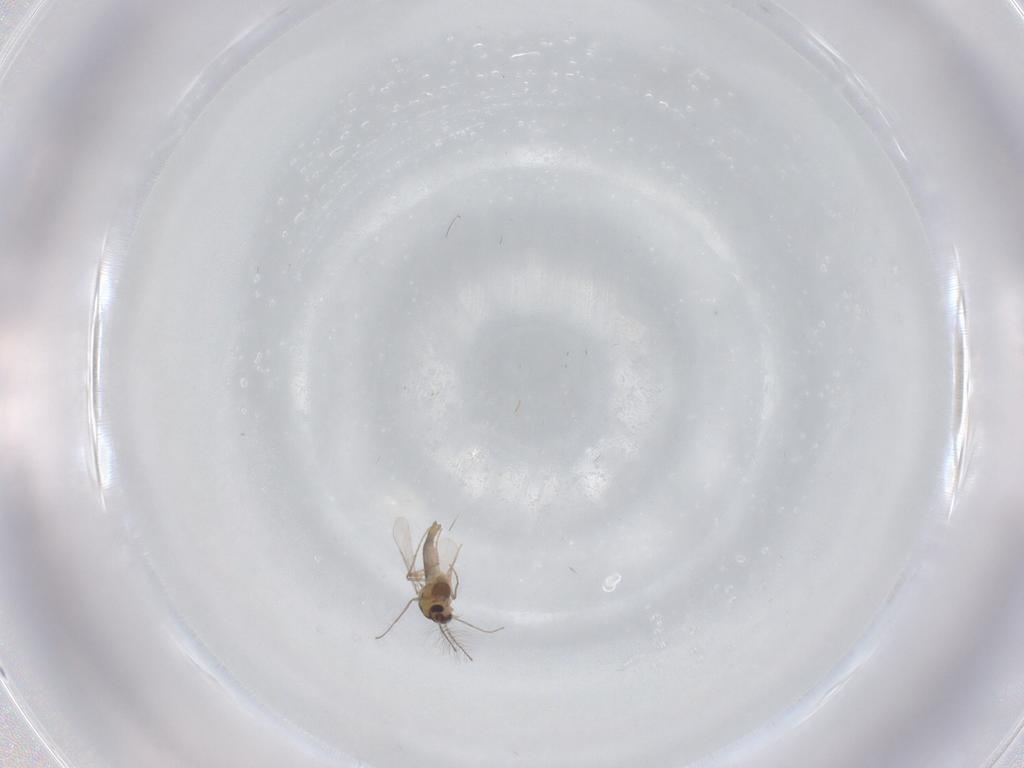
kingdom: Animalia
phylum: Arthropoda
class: Insecta
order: Diptera
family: Chironomidae
